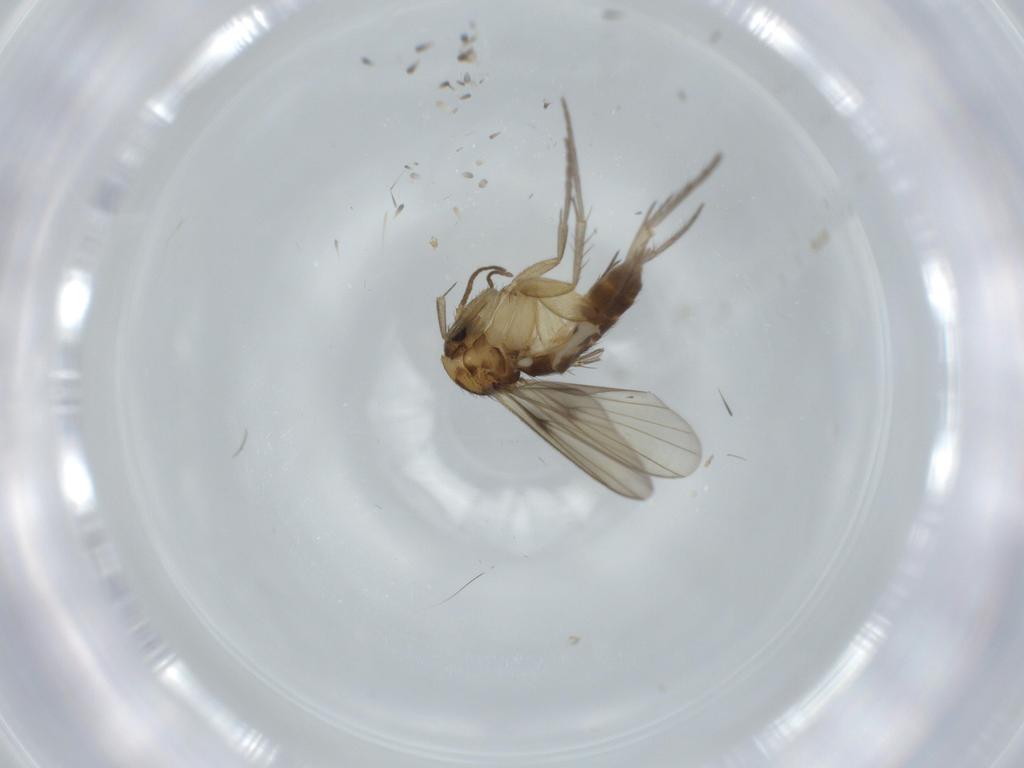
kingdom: Animalia
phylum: Arthropoda
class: Insecta
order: Diptera
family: Mycetophilidae
